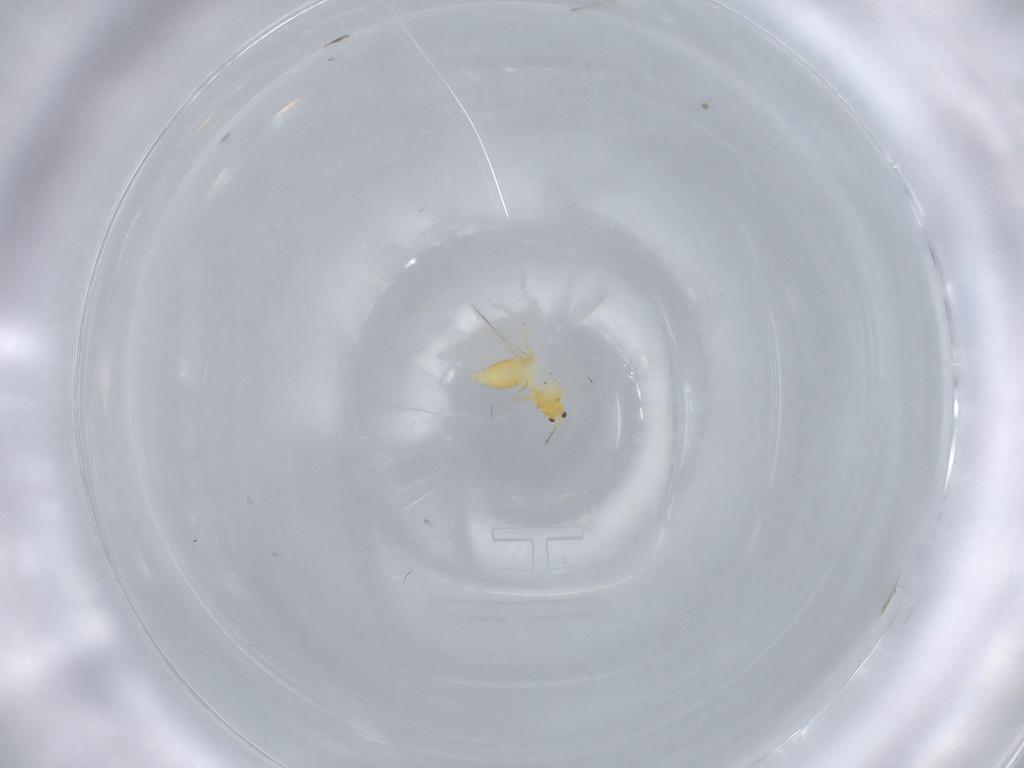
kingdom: Animalia
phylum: Arthropoda
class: Insecta
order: Thysanoptera
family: Thripidae
